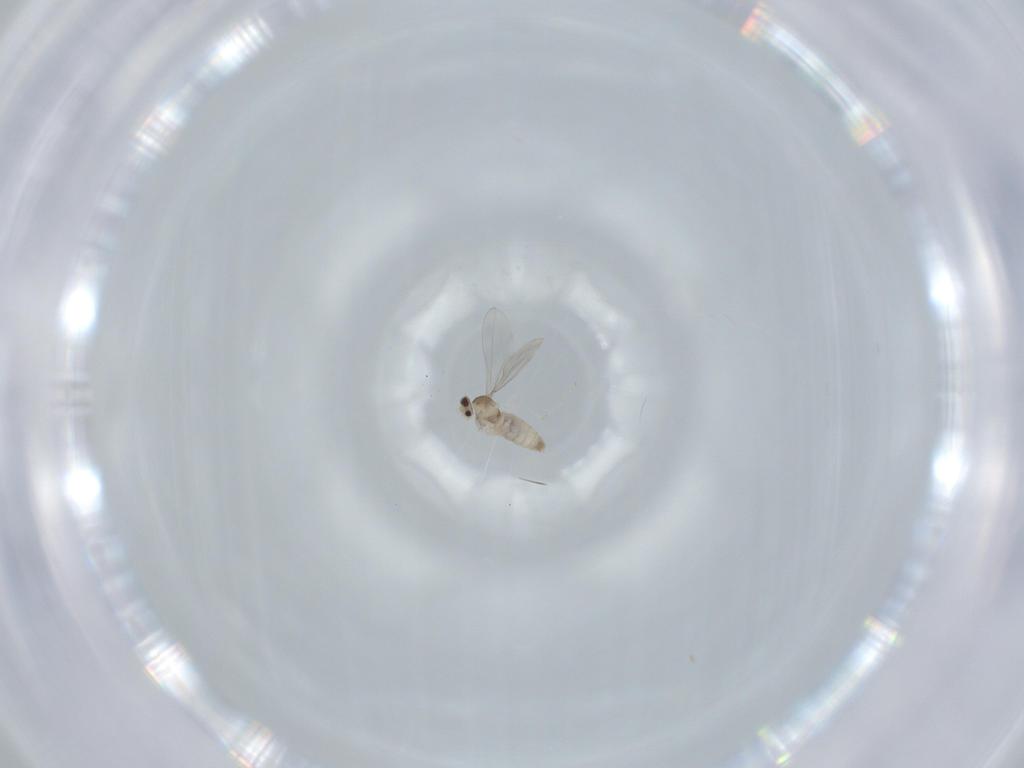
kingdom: Animalia
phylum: Arthropoda
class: Insecta
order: Diptera
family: Cecidomyiidae
